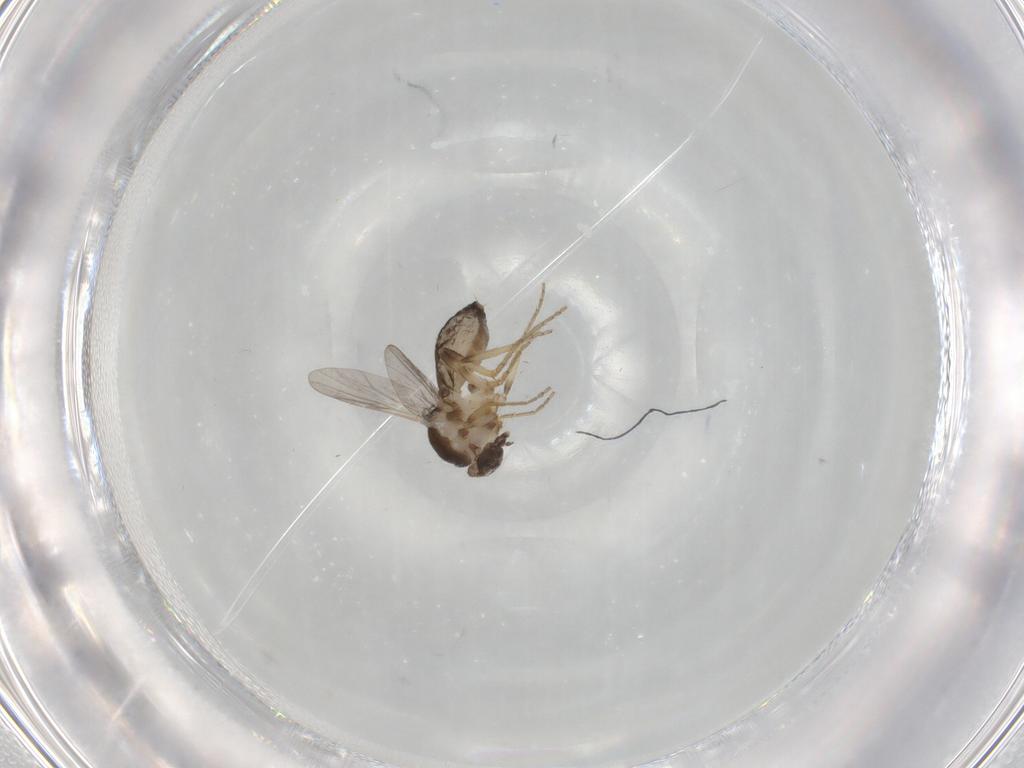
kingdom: Animalia
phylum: Arthropoda
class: Insecta
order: Diptera
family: Ceratopogonidae
